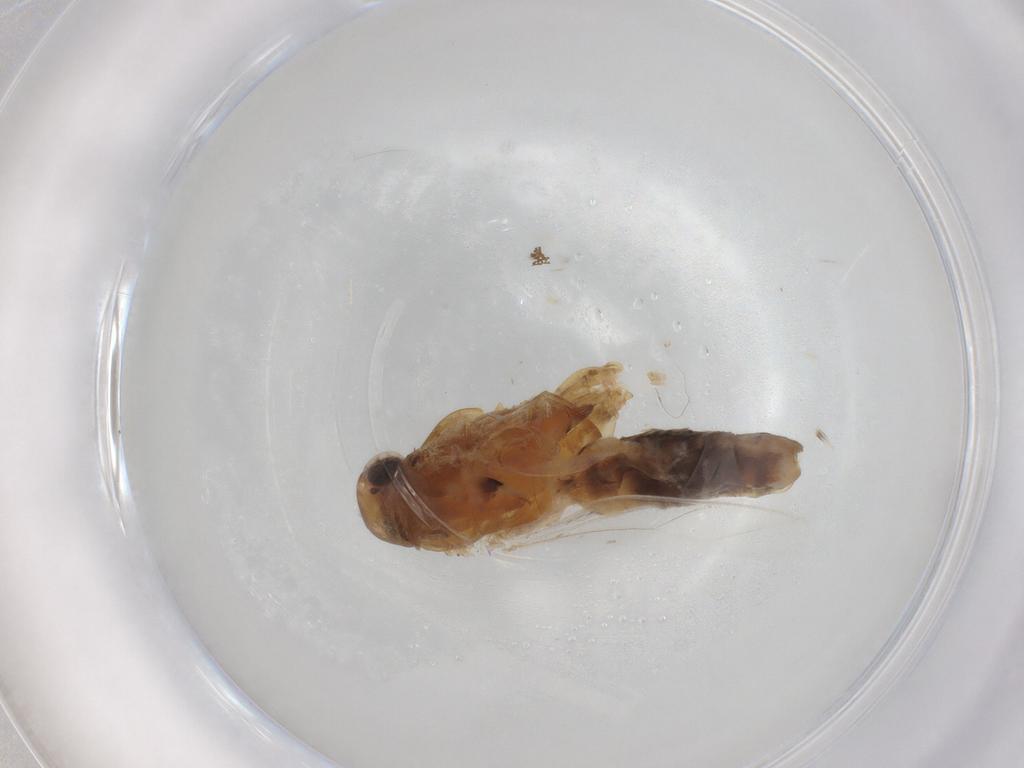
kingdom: Animalia
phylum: Arthropoda
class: Insecta
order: Lepidoptera
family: Gelechiidae
